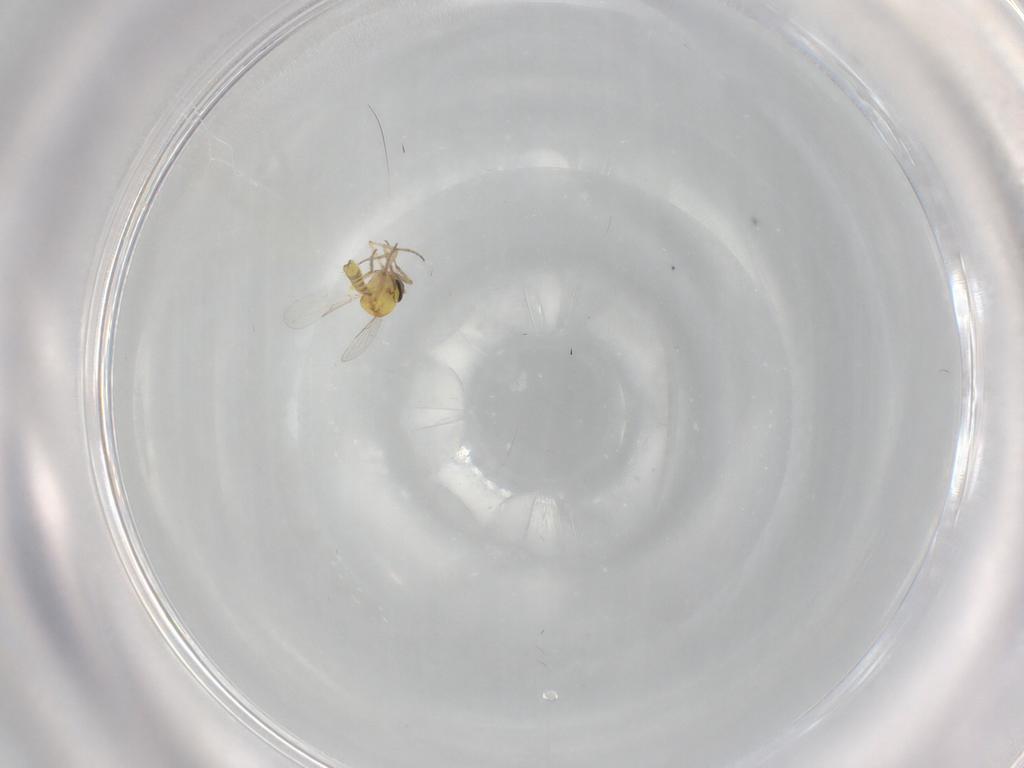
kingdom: Animalia
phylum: Arthropoda
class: Insecta
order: Diptera
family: Ceratopogonidae
